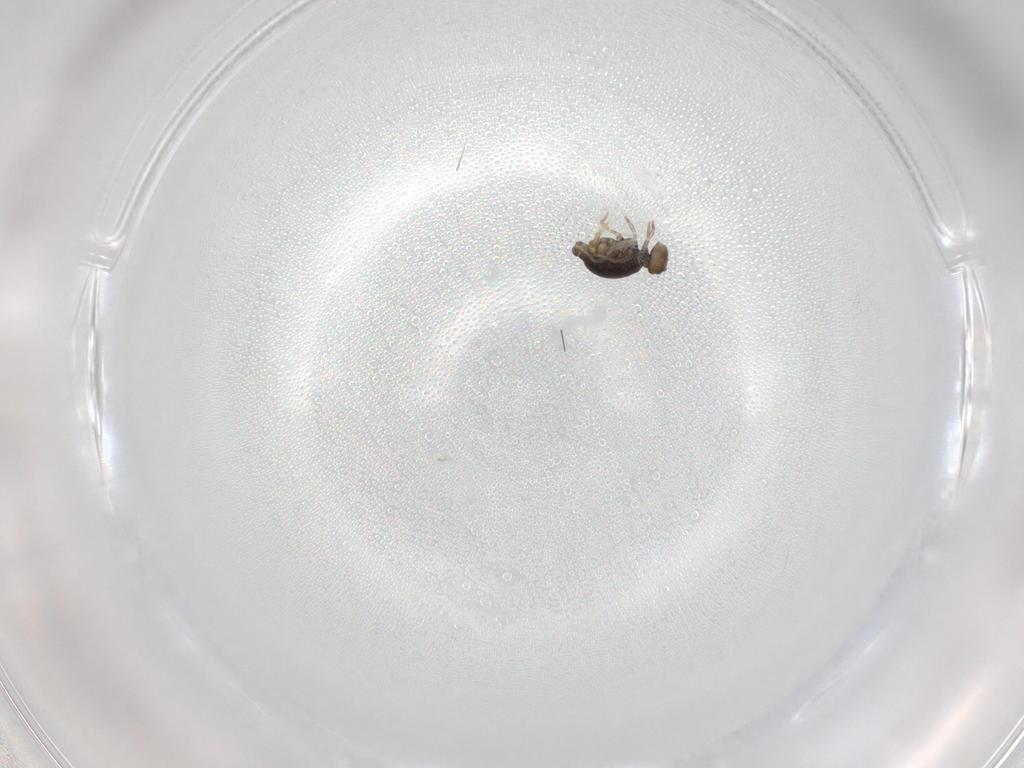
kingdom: Animalia
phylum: Arthropoda
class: Collembola
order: Symphypleona
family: Katiannidae
